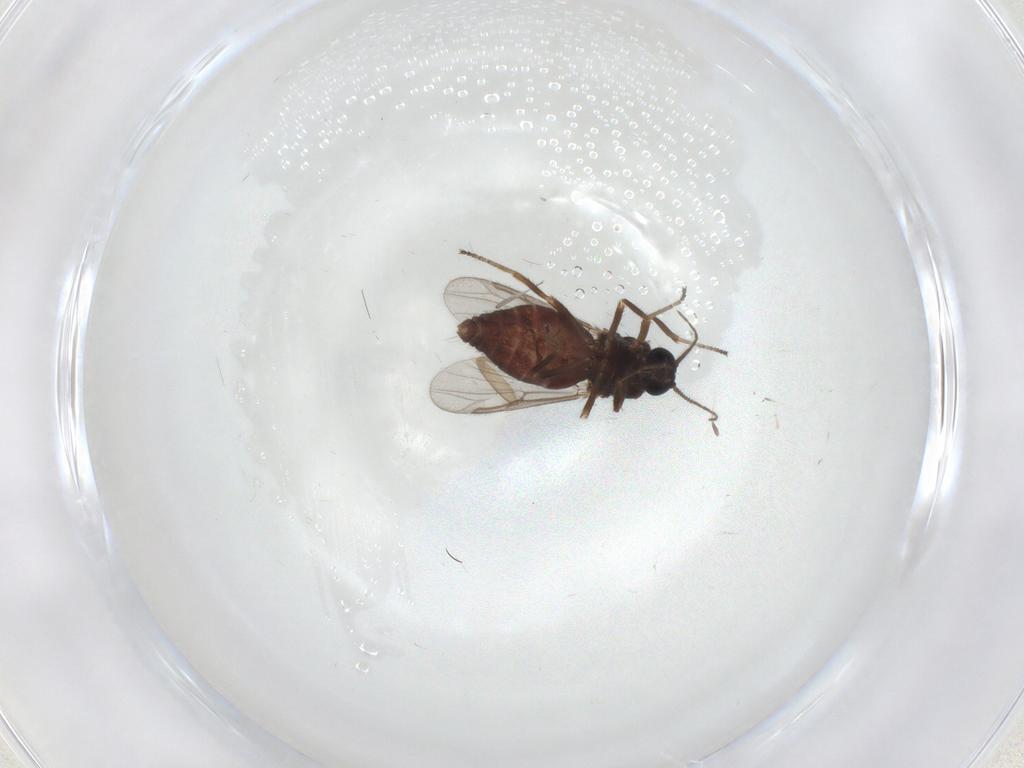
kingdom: Animalia
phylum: Arthropoda
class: Insecta
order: Diptera
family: Ceratopogonidae
